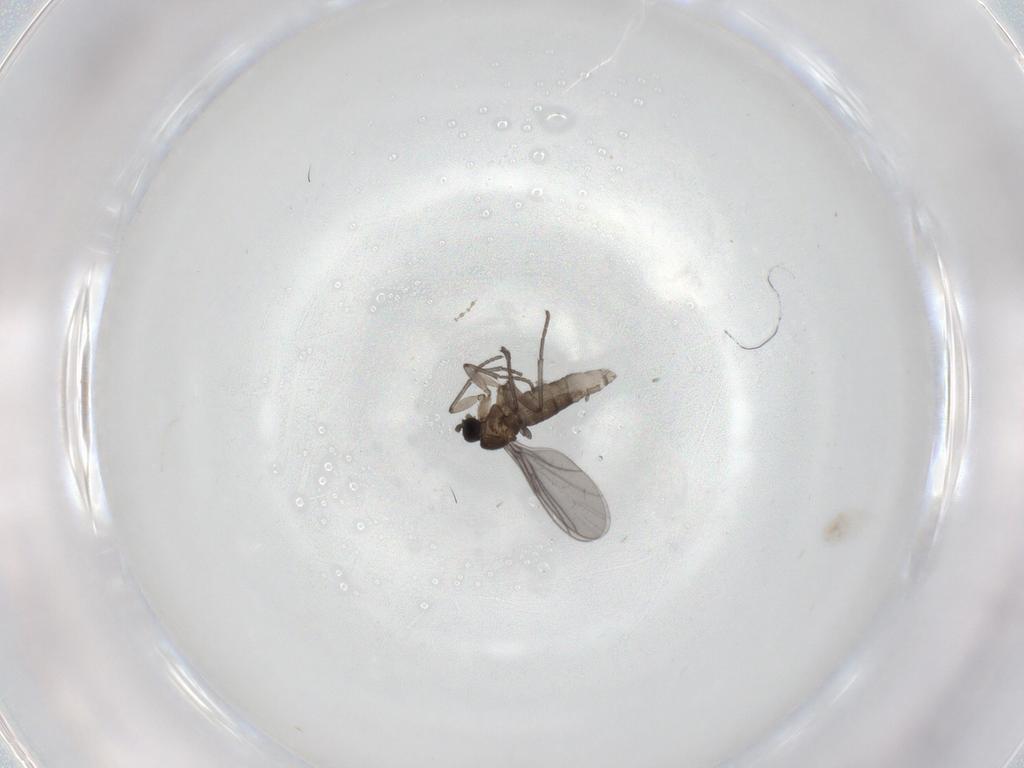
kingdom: Animalia
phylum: Arthropoda
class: Insecta
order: Diptera
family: Sciaridae
